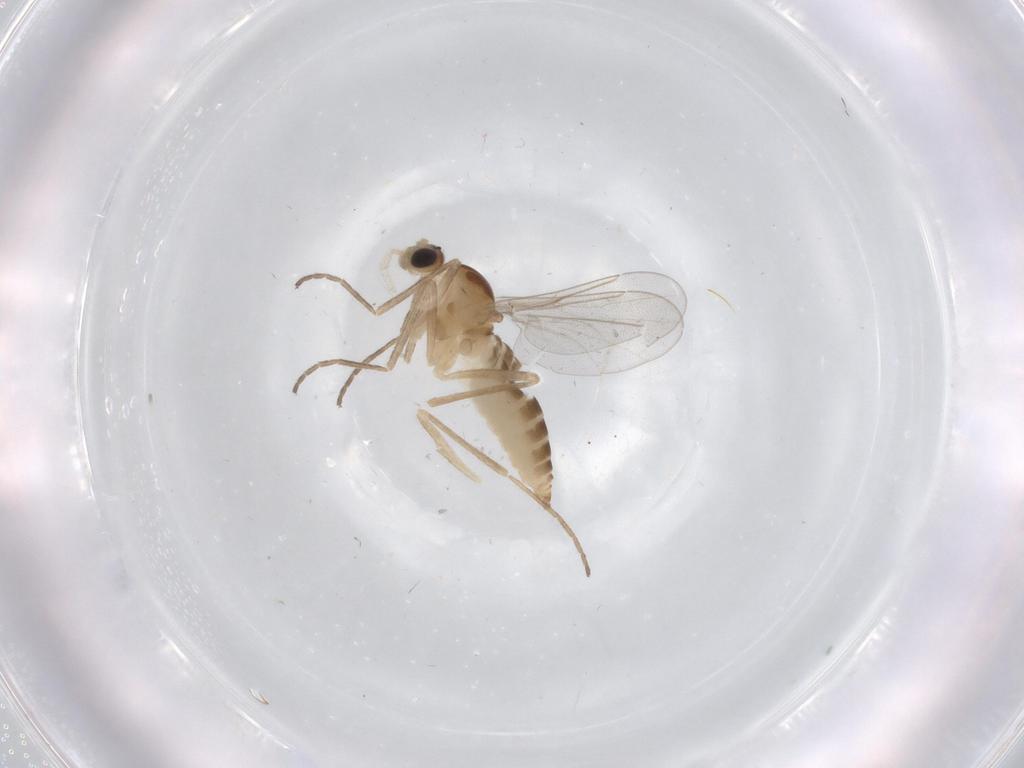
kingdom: Animalia
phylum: Arthropoda
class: Insecta
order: Diptera
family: Cecidomyiidae
